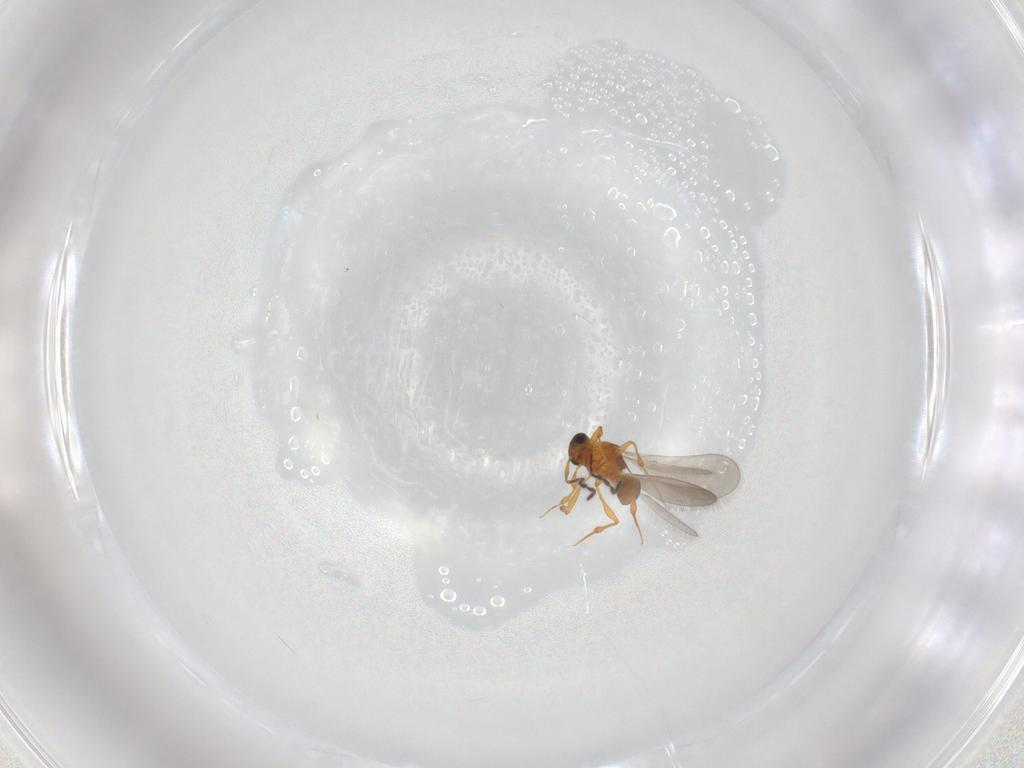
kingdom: Animalia
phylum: Arthropoda
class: Insecta
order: Hymenoptera
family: Platygastridae
